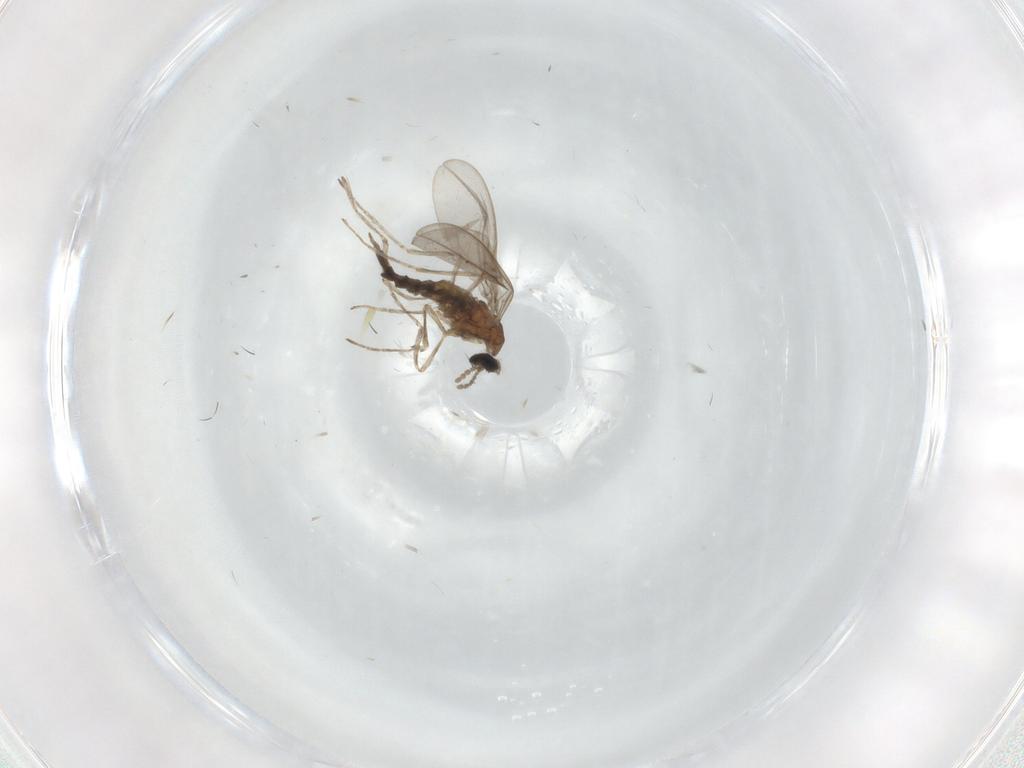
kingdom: Animalia
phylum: Arthropoda
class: Insecta
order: Diptera
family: Cecidomyiidae
